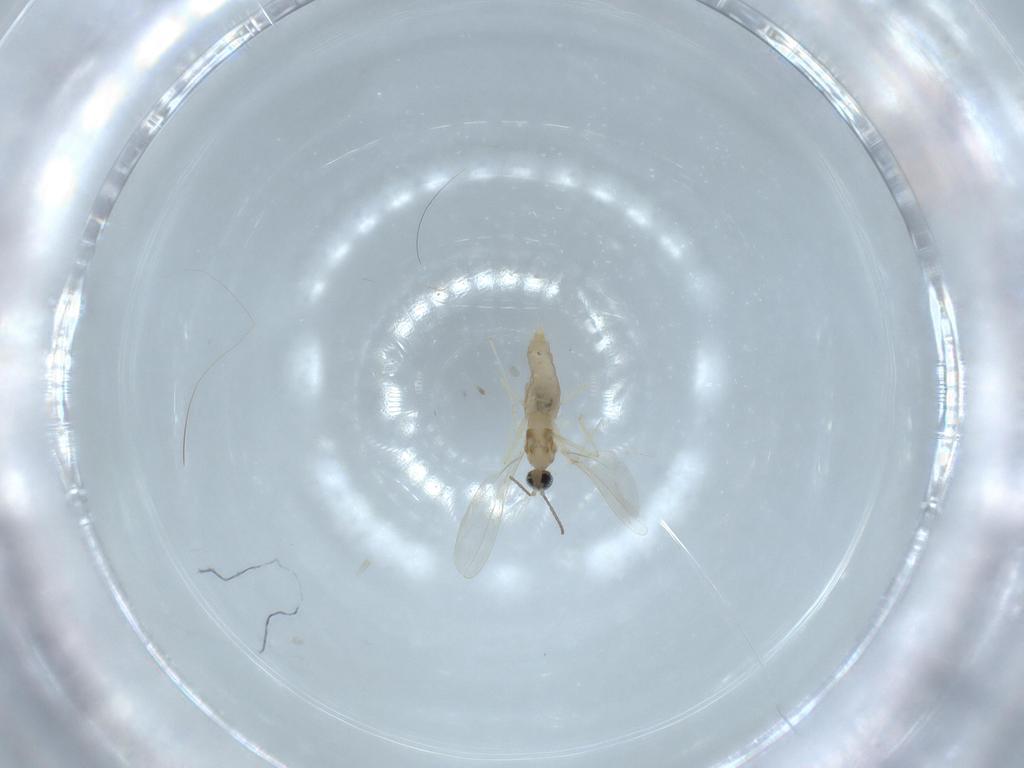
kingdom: Animalia
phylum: Arthropoda
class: Insecta
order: Diptera
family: Cecidomyiidae
